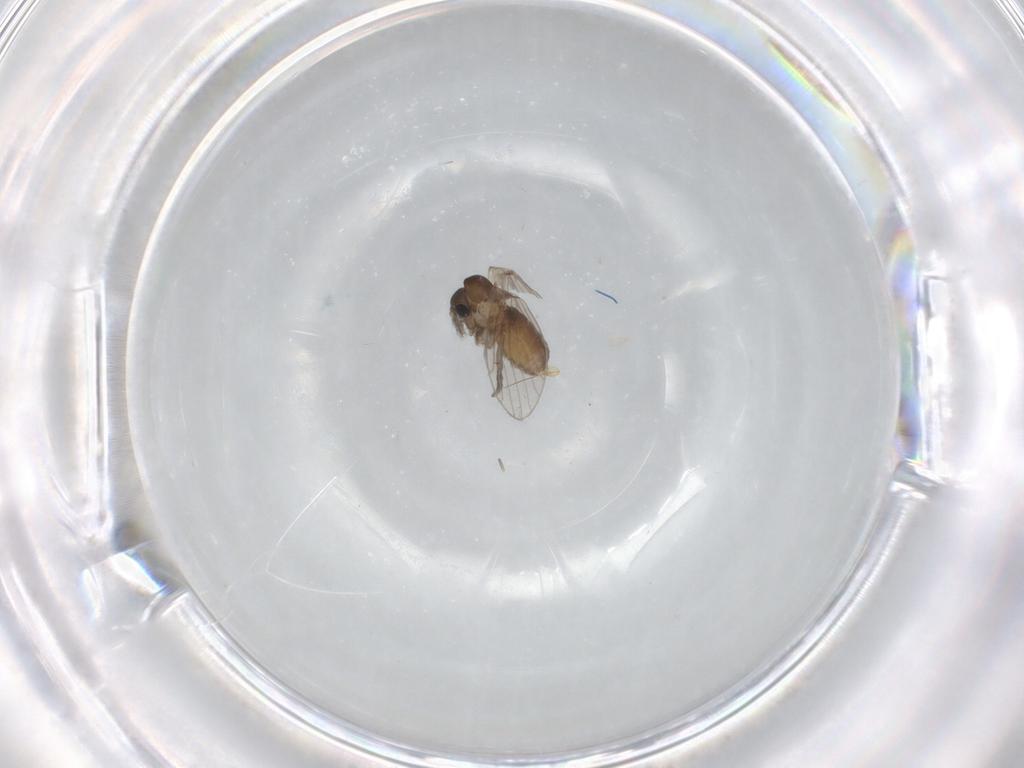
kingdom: Animalia
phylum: Arthropoda
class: Insecta
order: Diptera
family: Psychodidae
